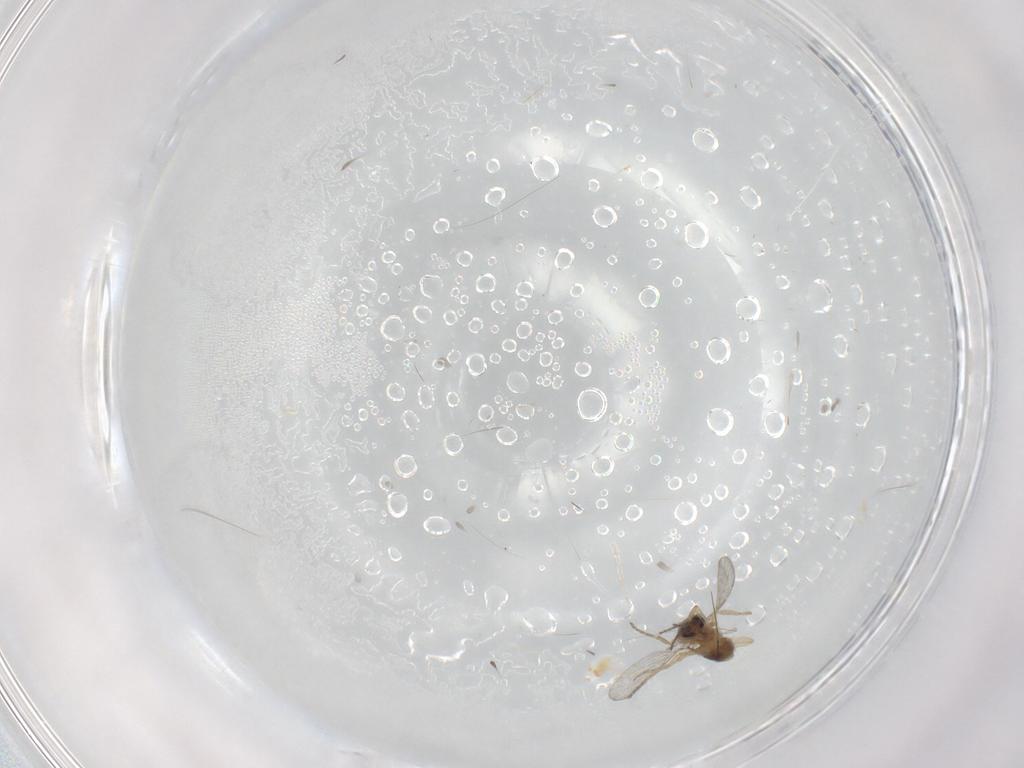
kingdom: Animalia
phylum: Arthropoda
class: Insecta
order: Diptera
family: Ceratopogonidae
